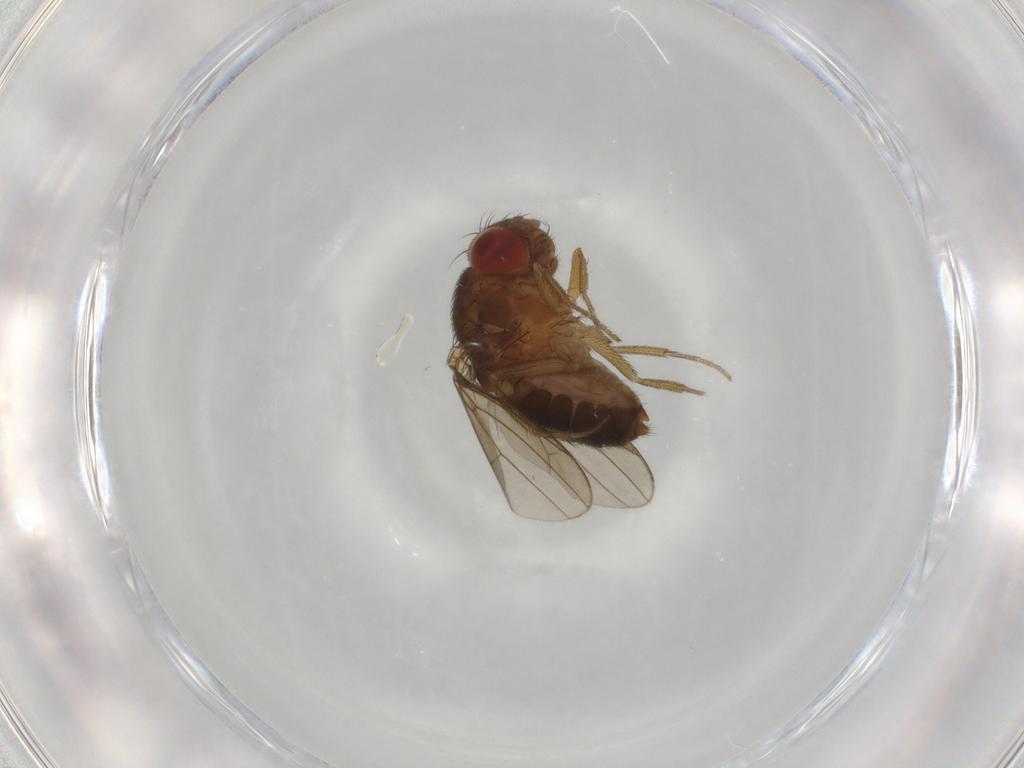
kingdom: Animalia
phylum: Arthropoda
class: Insecta
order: Diptera
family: Drosophilidae
